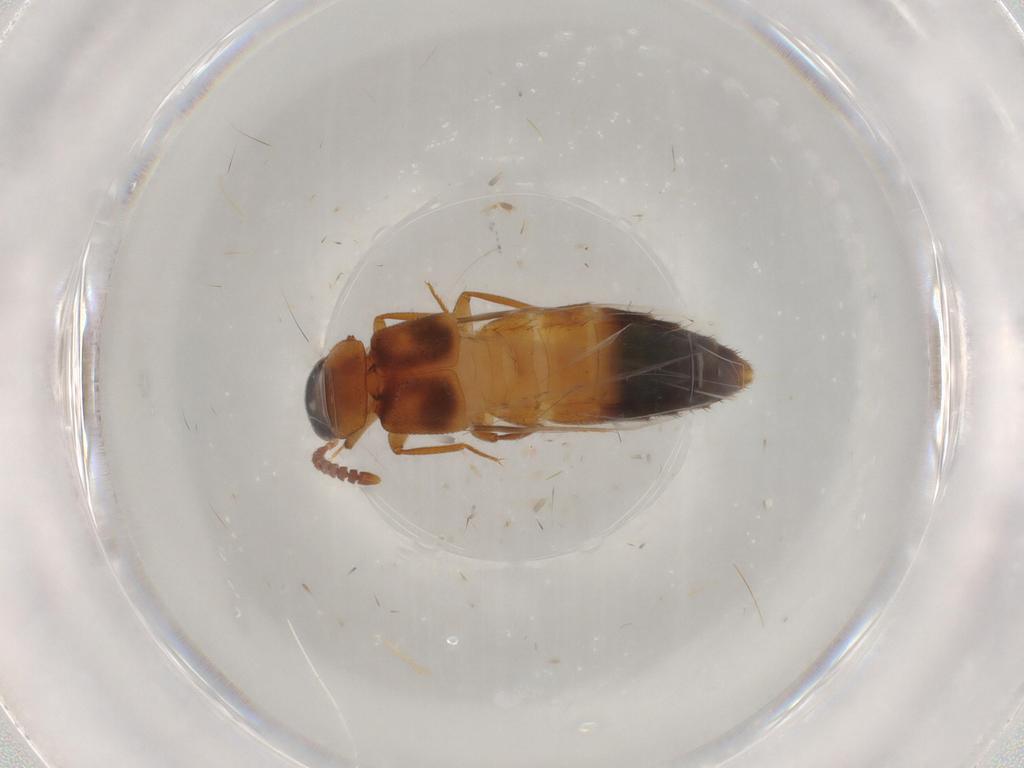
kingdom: Animalia
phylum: Arthropoda
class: Insecta
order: Coleoptera
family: Staphylinidae
